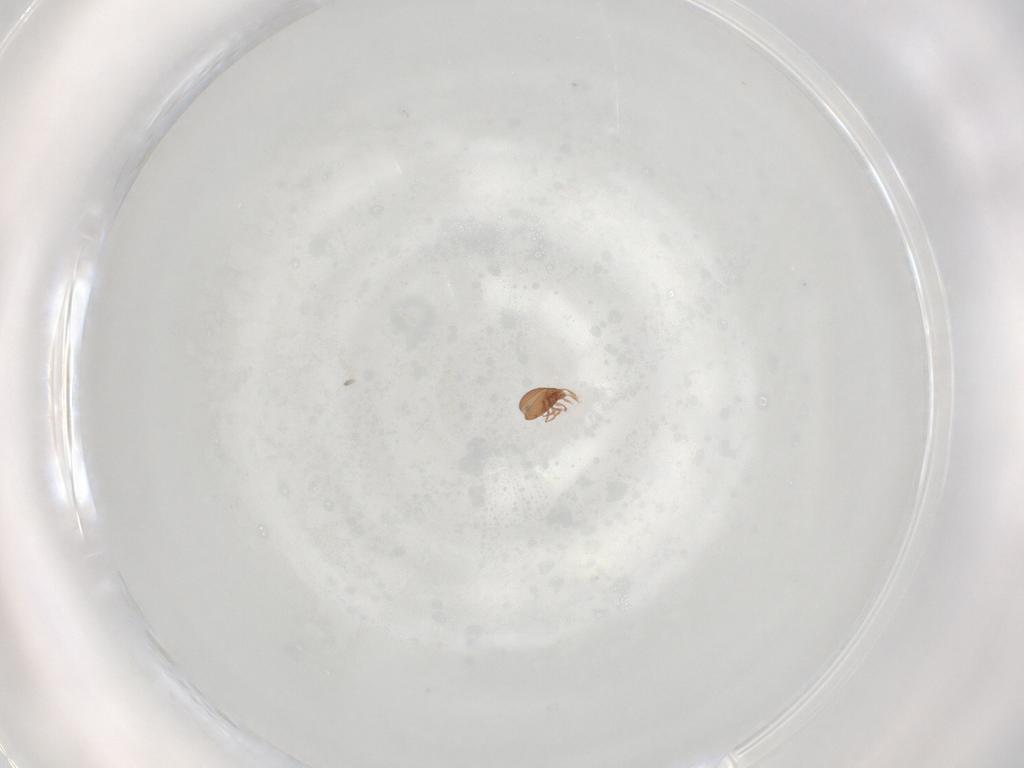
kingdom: Animalia
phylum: Arthropoda
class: Arachnida
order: Sarcoptiformes
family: Scheloribatidae
